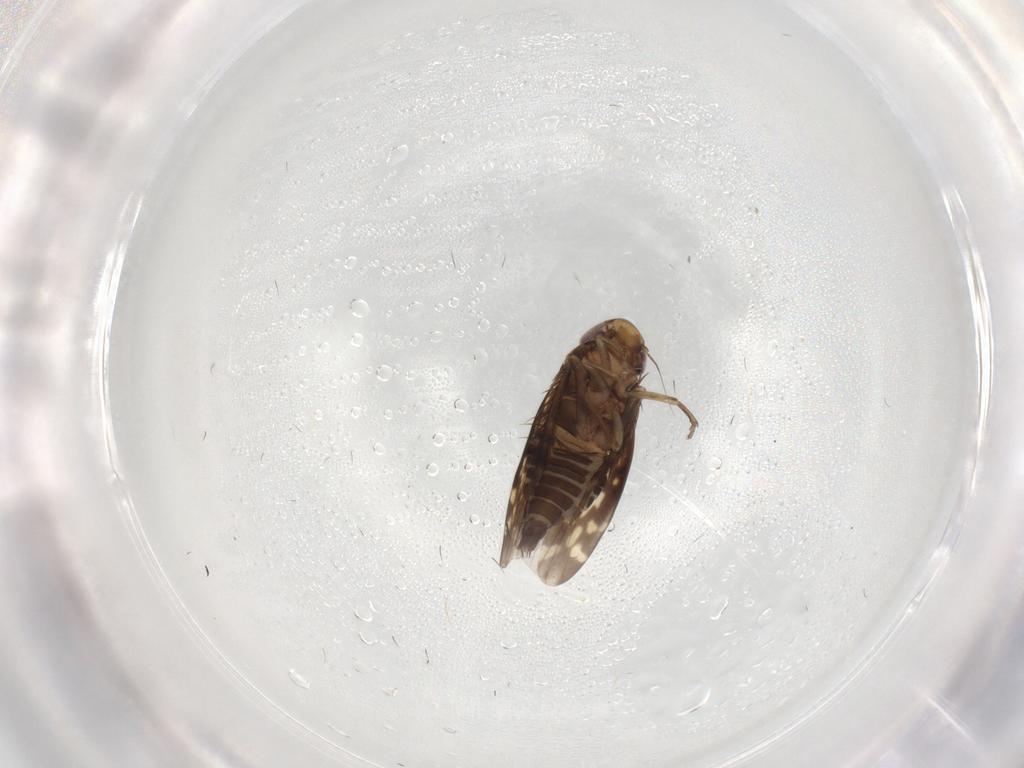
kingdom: Animalia
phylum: Arthropoda
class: Insecta
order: Hemiptera
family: Cicadellidae
